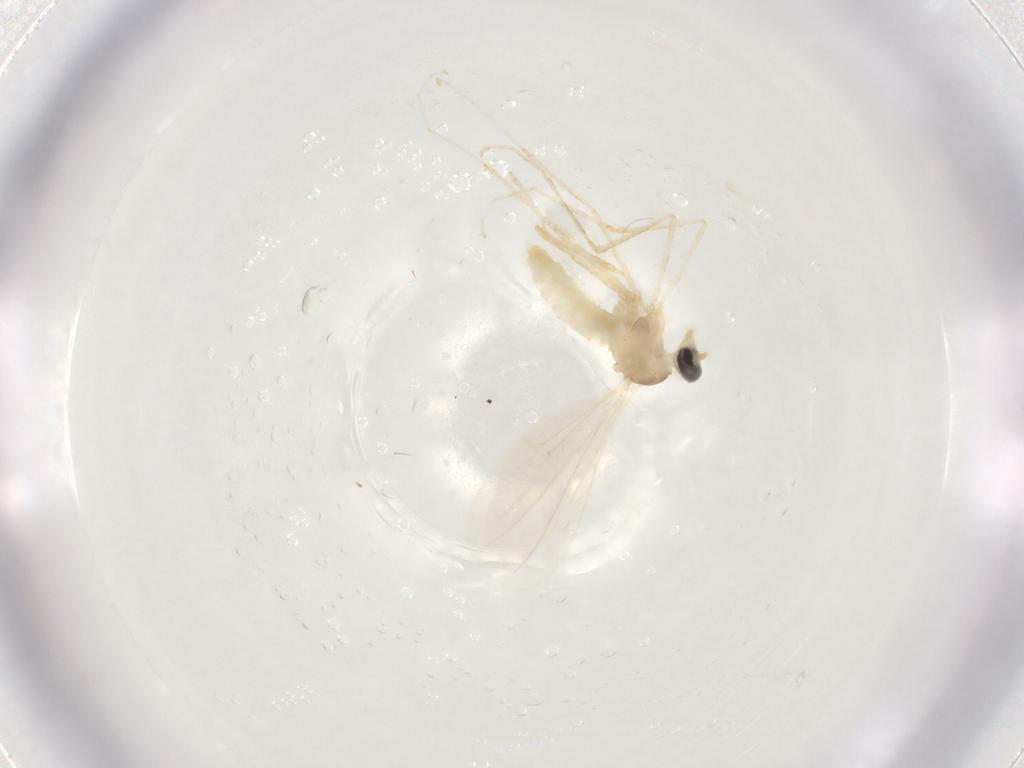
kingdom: Animalia
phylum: Arthropoda
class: Insecta
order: Diptera
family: Cecidomyiidae
